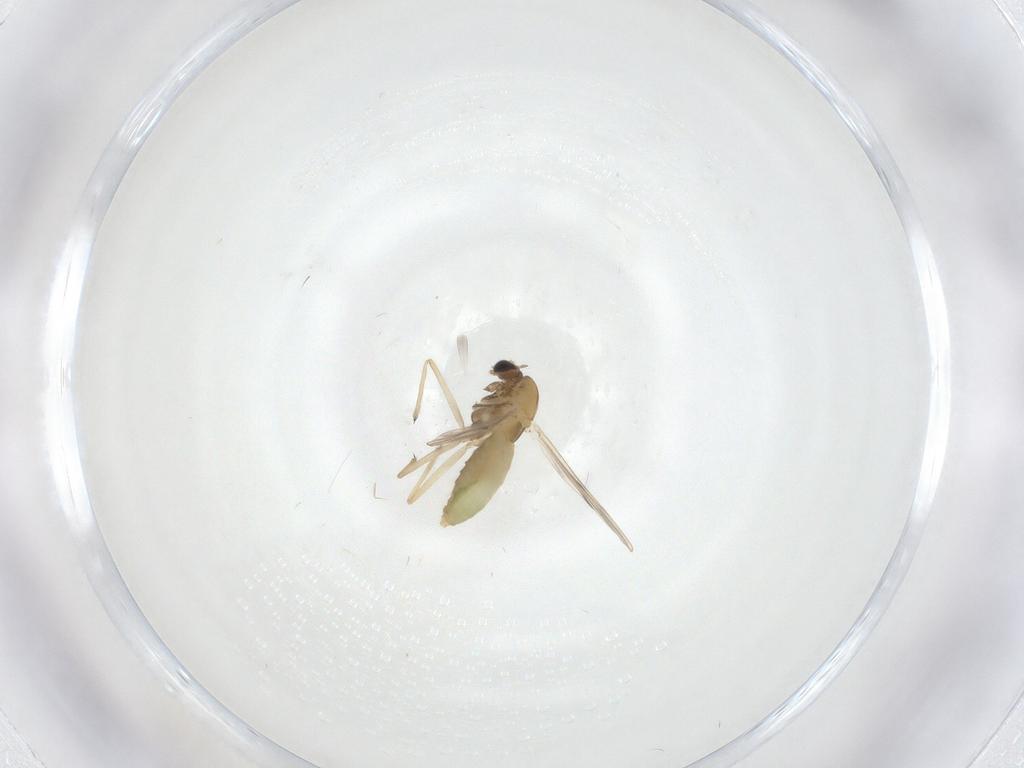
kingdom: Animalia
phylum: Arthropoda
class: Insecta
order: Diptera
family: Chironomidae
